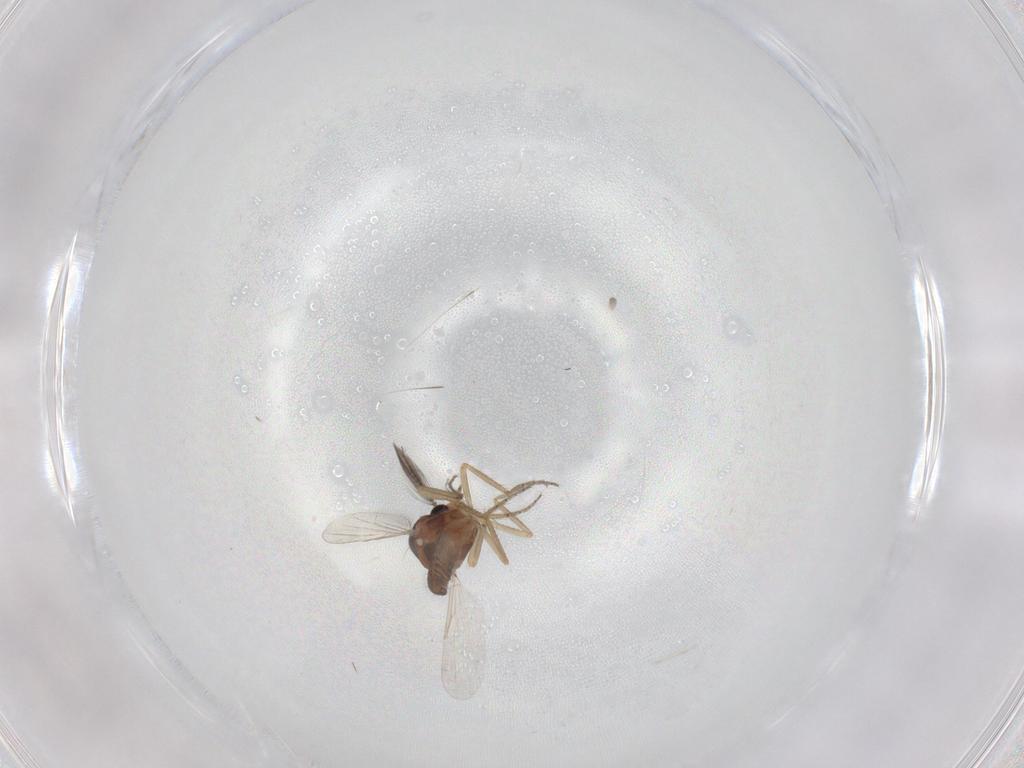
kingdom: Animalia
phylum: Arthropoda
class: Insecta
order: Diptera
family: Ceratopogonidae
